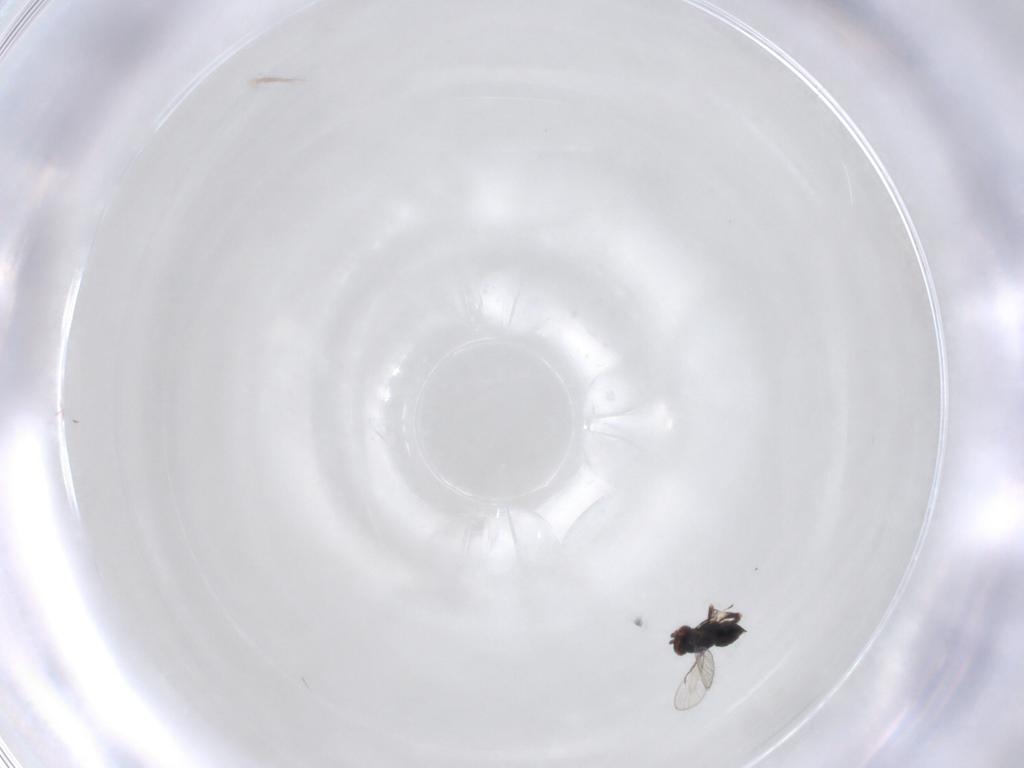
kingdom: Animalia
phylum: Arthropoda
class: Insecta
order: Hymenoptera
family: Trichogrammatidae
